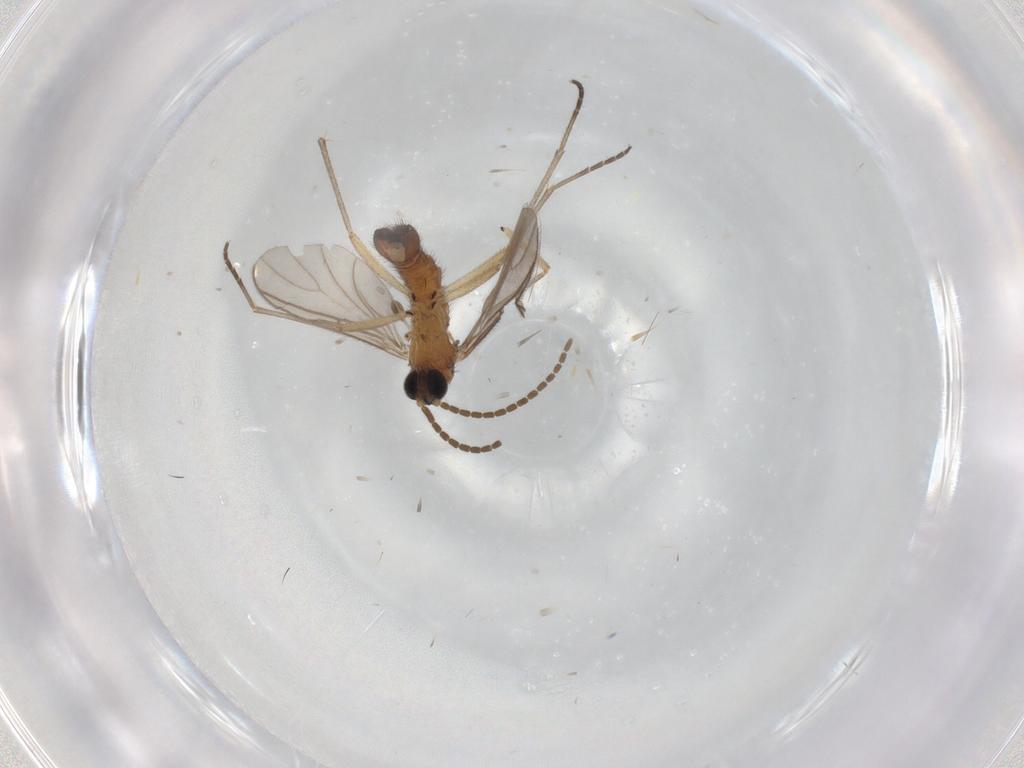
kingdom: Animalia
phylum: Arthropoda
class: Insecta
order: Diptera
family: Sciaridae
